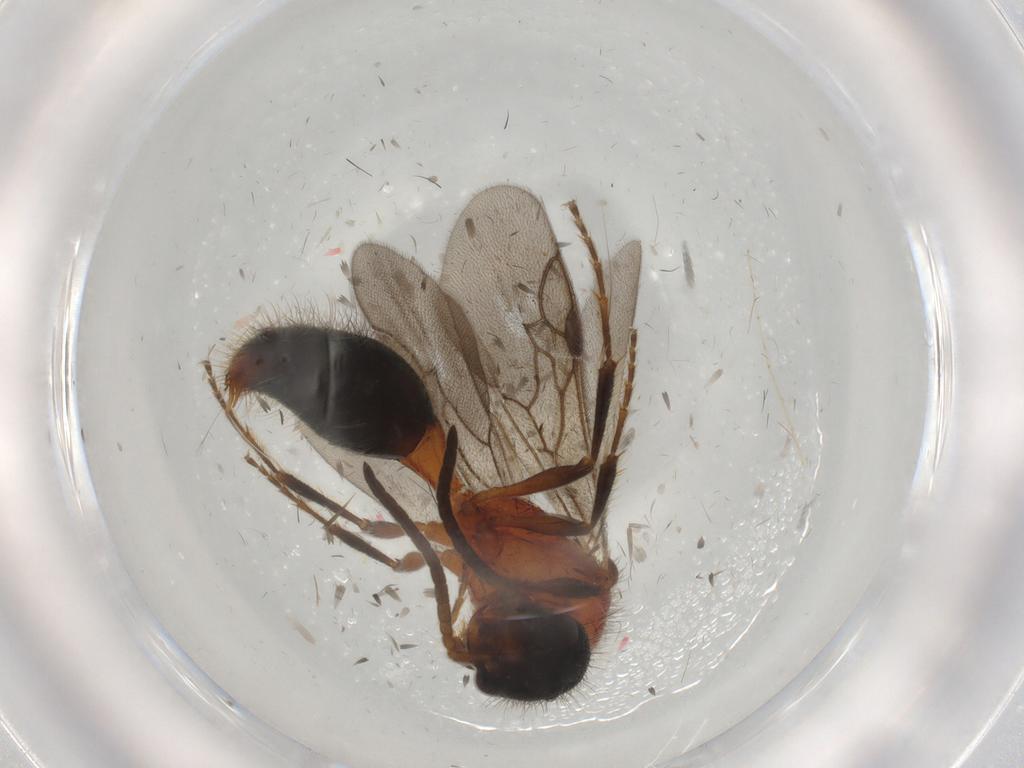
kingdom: Animalia
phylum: Arthropoda
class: Insecta
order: Hymenoptera
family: Mutillidae
